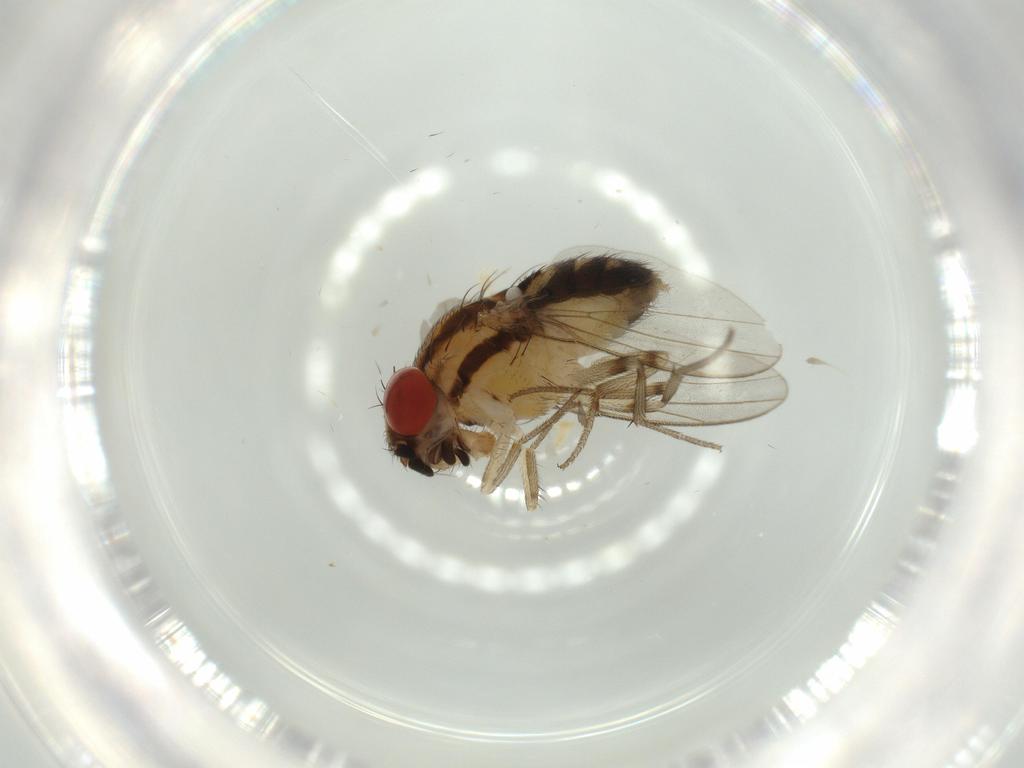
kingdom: Animalia
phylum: Arthropoda
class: Insecta
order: Diptera
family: Drosophilidae
